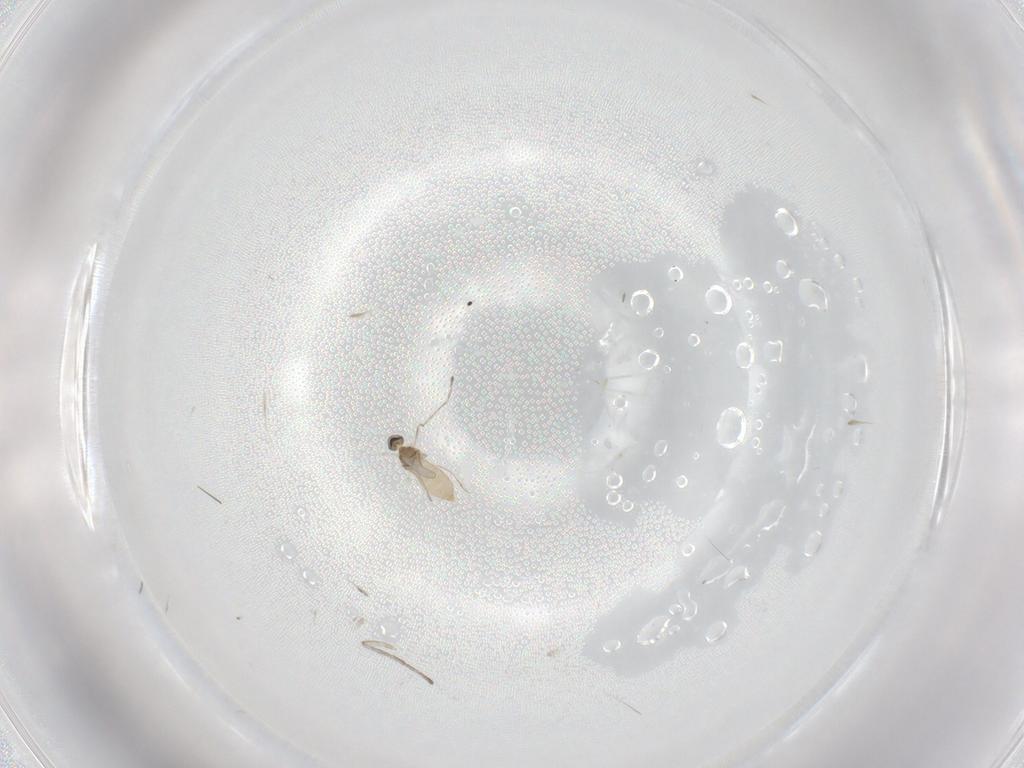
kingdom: Animalia
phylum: Arthropoda
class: Insecta
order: Diptera
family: Cecidomyiidae
